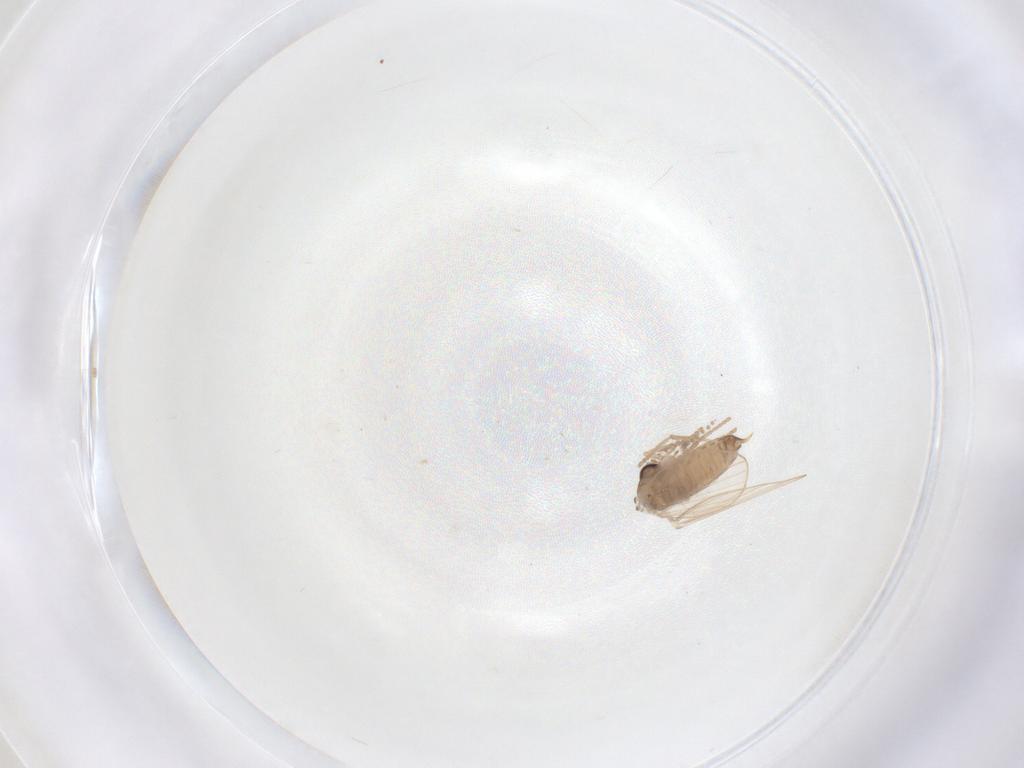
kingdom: Animalia
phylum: Arthropoda
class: Insecta
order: Diptera
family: Psychodidae
